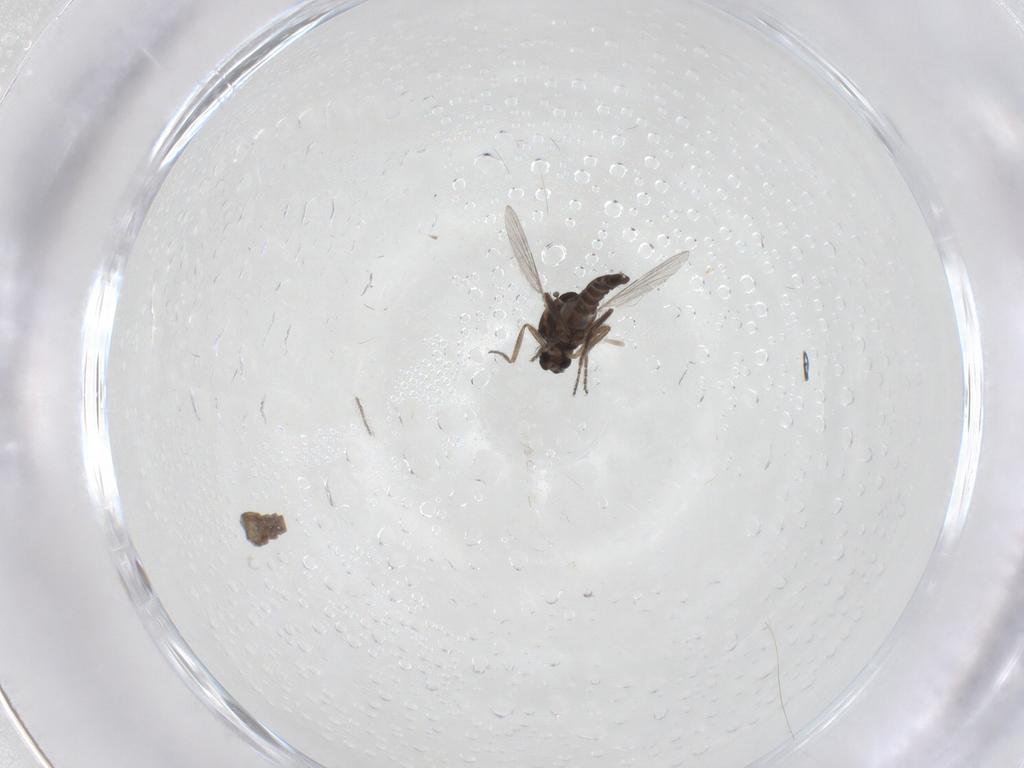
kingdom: Animalia
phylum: Arthropoda
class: Insecta
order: Diptera
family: Ceratopogonidae
